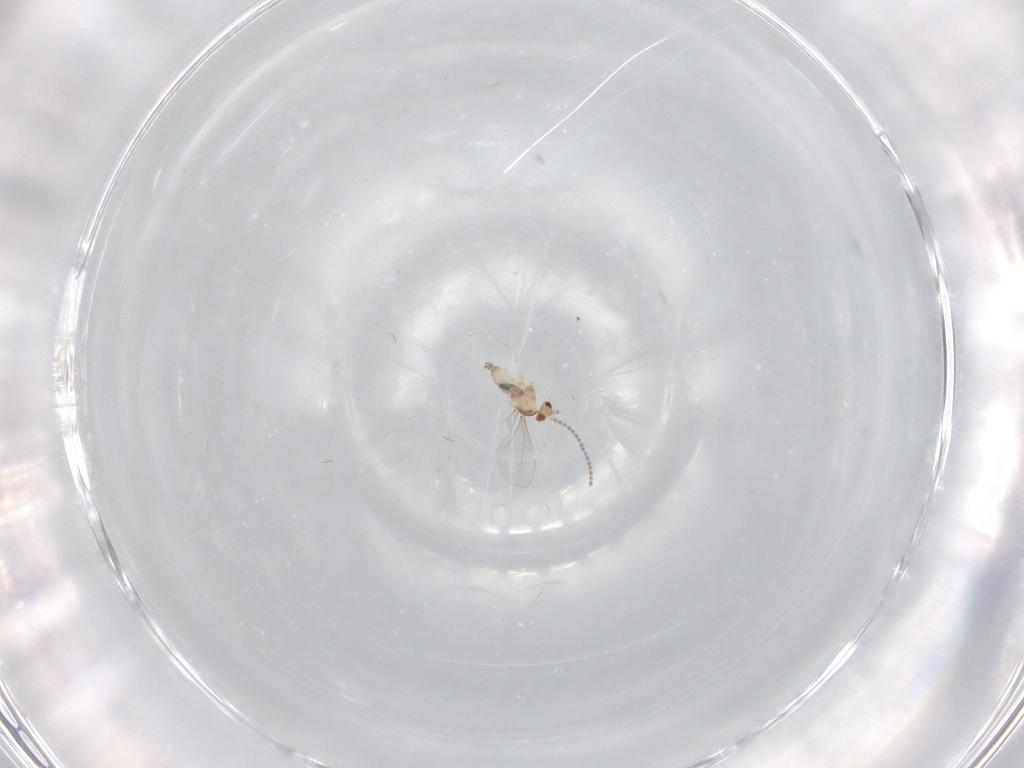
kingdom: Animalia
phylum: Arthropoda
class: Insecta
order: Diptera
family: Cecidomyiidae
